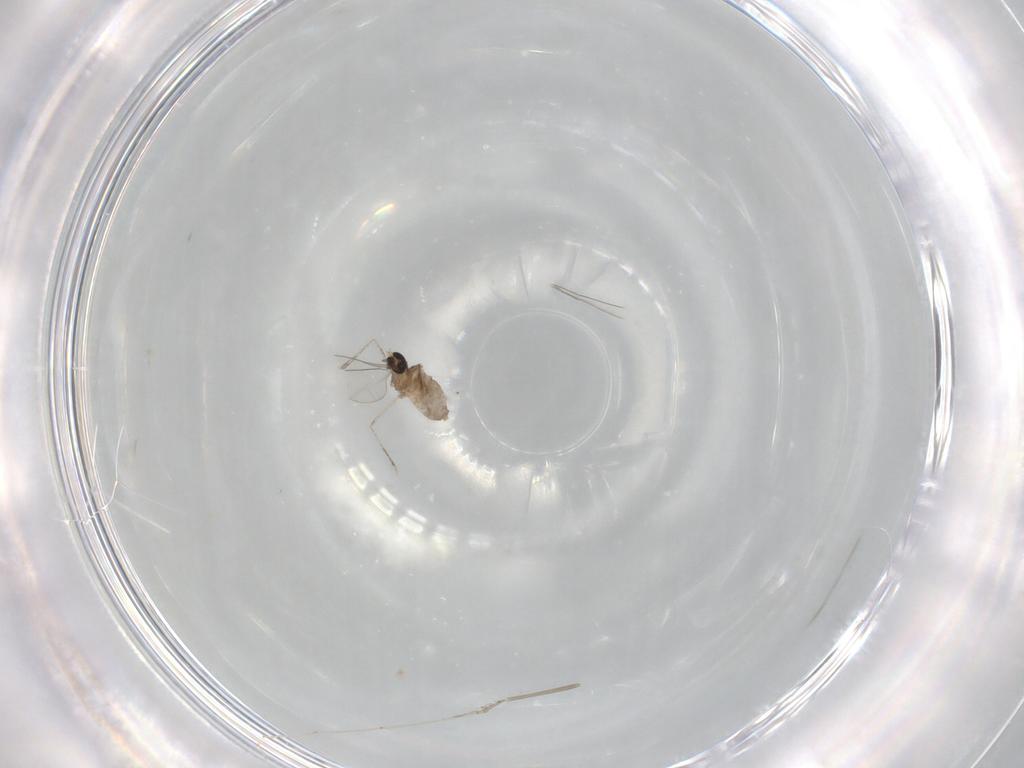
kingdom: Animalia
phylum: Arthropoda
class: Insecta
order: Diptera
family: Cecidomyiidae
